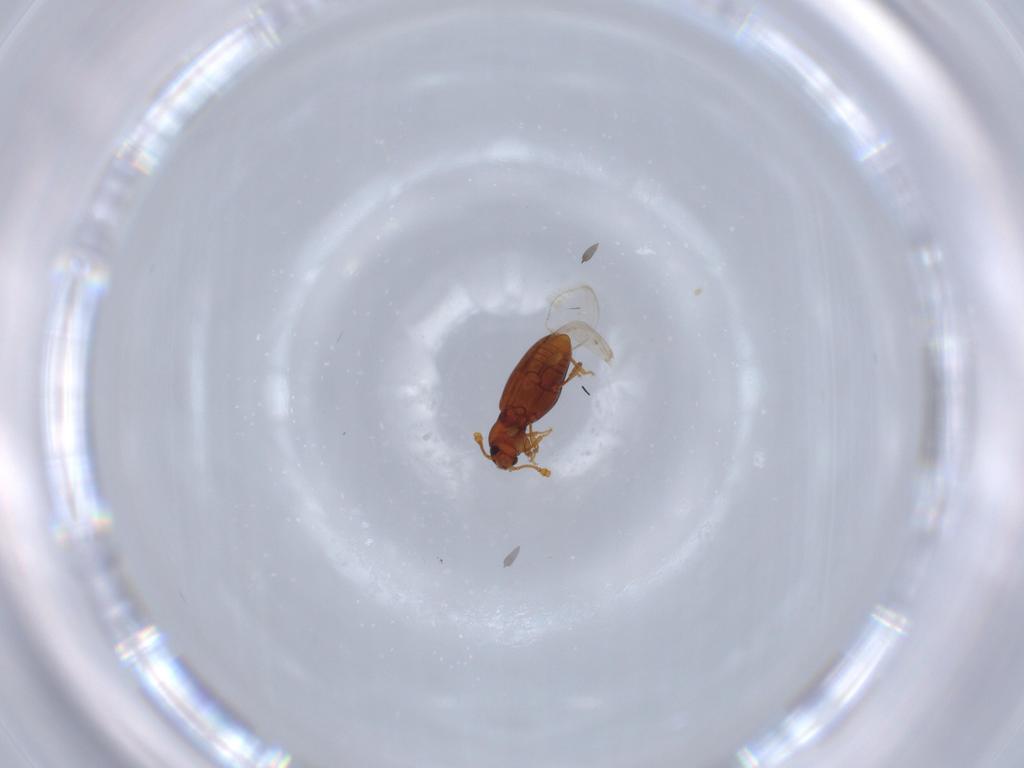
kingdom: Animalia
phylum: Arthropoda
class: Insecta
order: Coleoptera
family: Endomychidae
